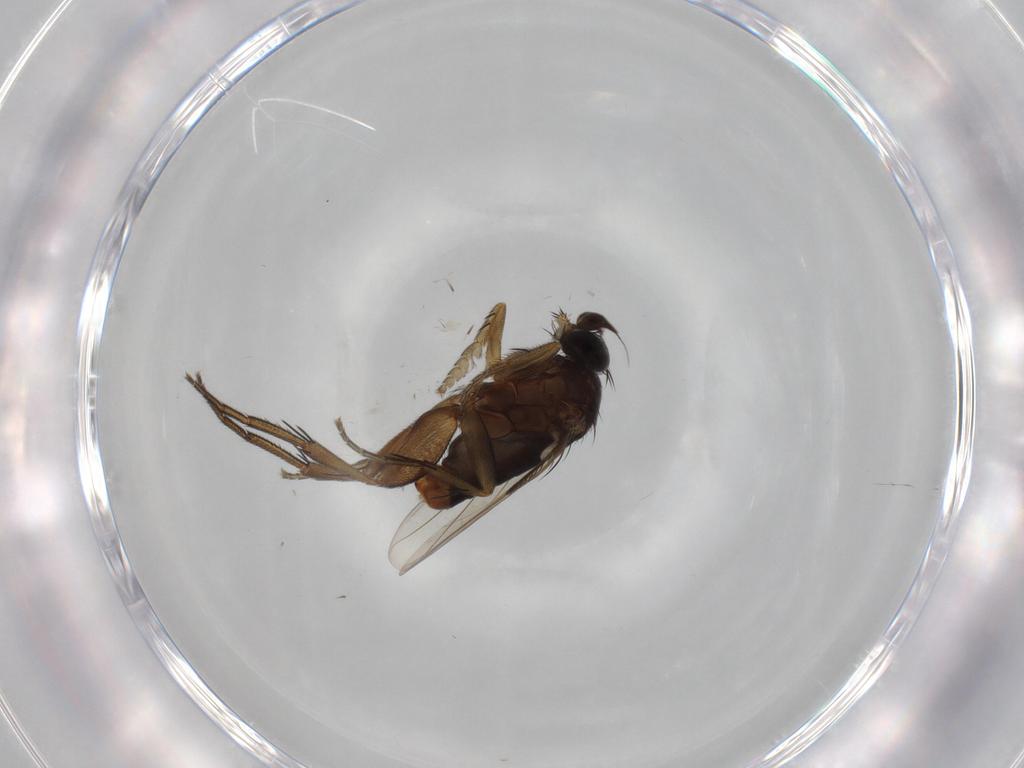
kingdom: Animalia
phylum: Arthropoda
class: Insecta
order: Diptera
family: Phoridae
